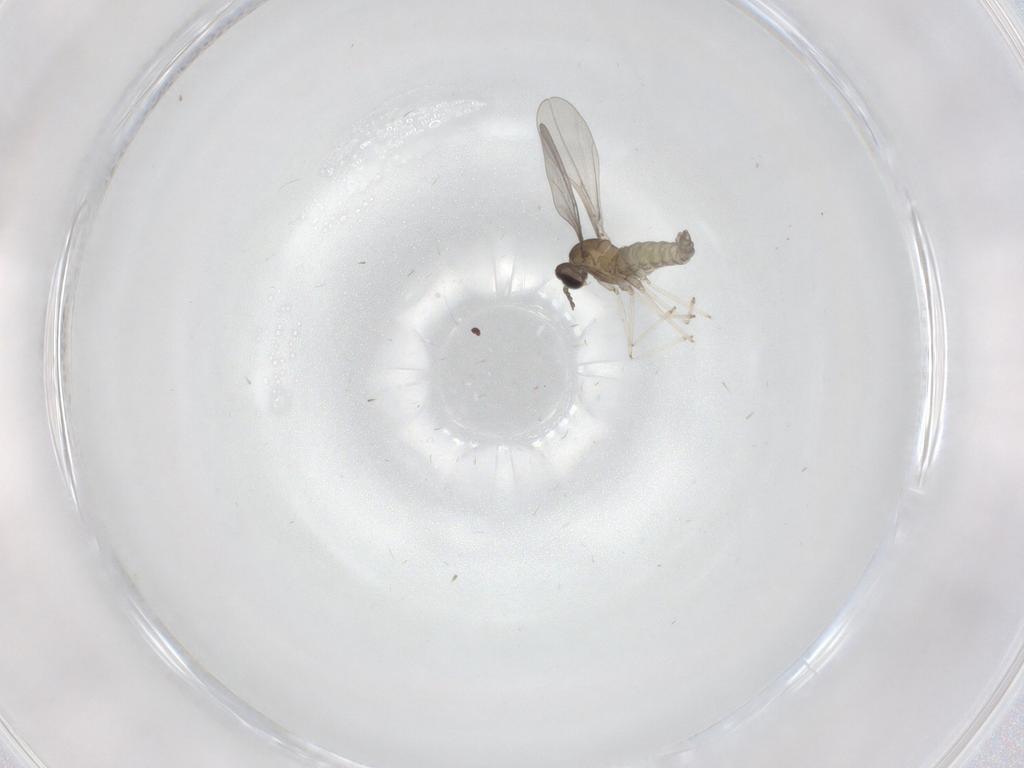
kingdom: Animalia
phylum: Arthropoda
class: Insecta
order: Diptera
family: Cecidomyiidae
